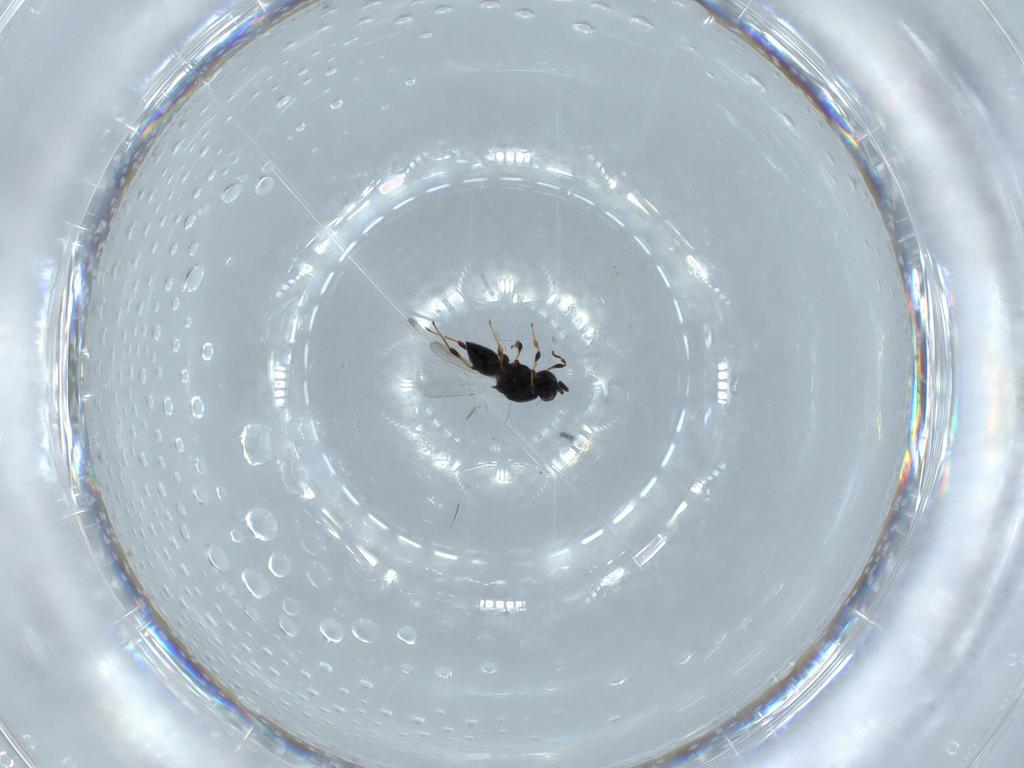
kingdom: Animalia
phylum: Arthropoda
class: Insecta
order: Hymenoptera
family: Platygastridae
